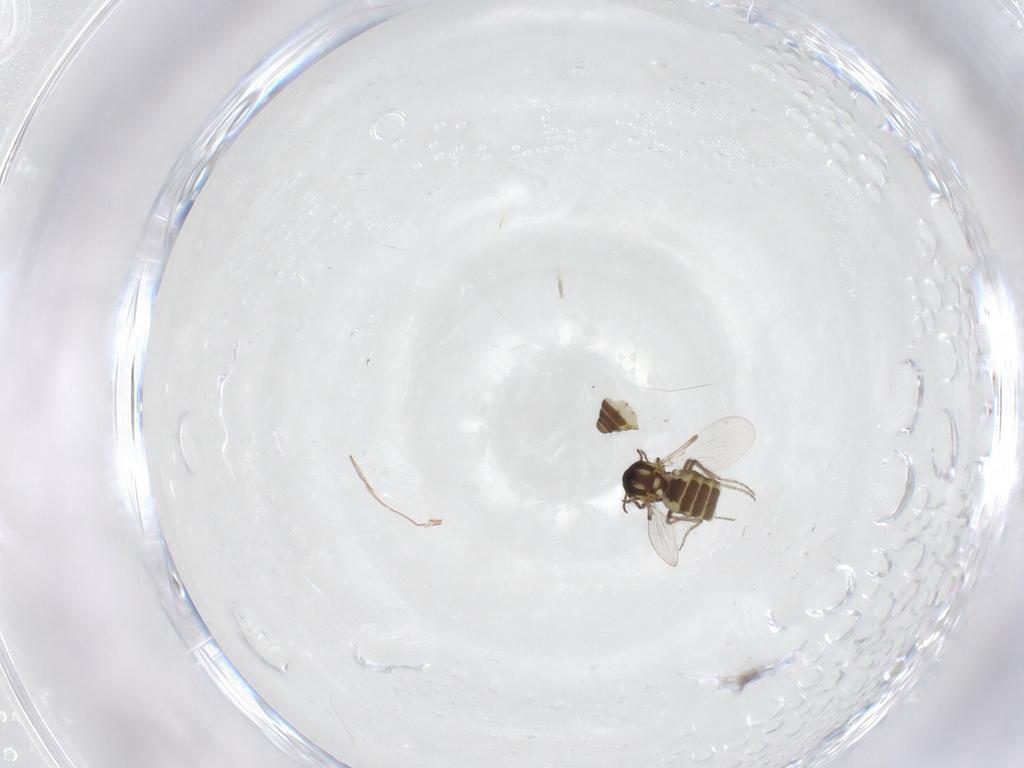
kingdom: Animalia
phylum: Arthropoda
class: Insecta
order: Diptera
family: Ceratopogonidae
